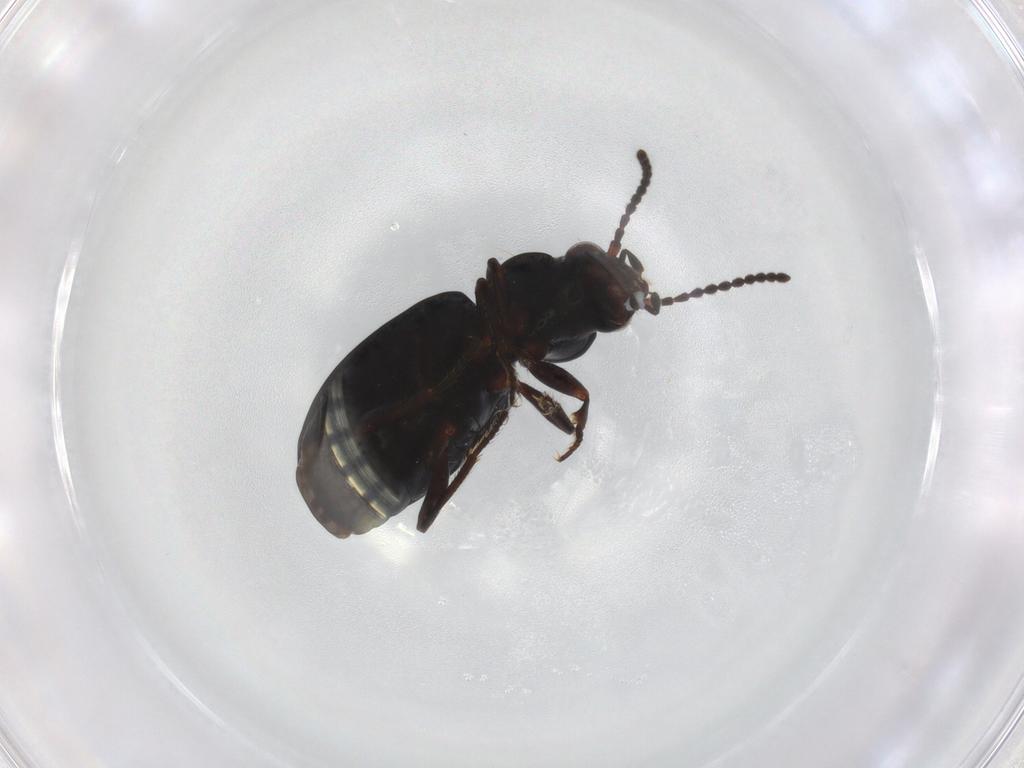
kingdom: Animalia
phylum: Arthropoda
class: Insecta
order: Coleoptera
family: Carabidae
